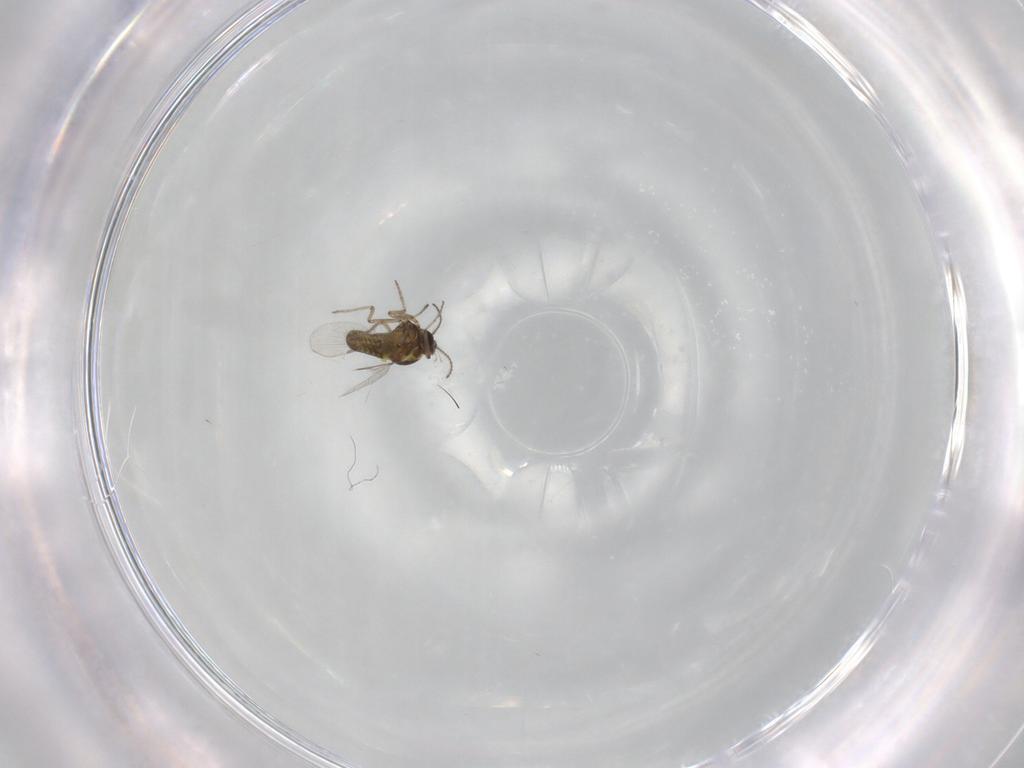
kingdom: Animalia
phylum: Arthropoda
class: Insecta
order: Diptera
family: Ceratopogonidae
